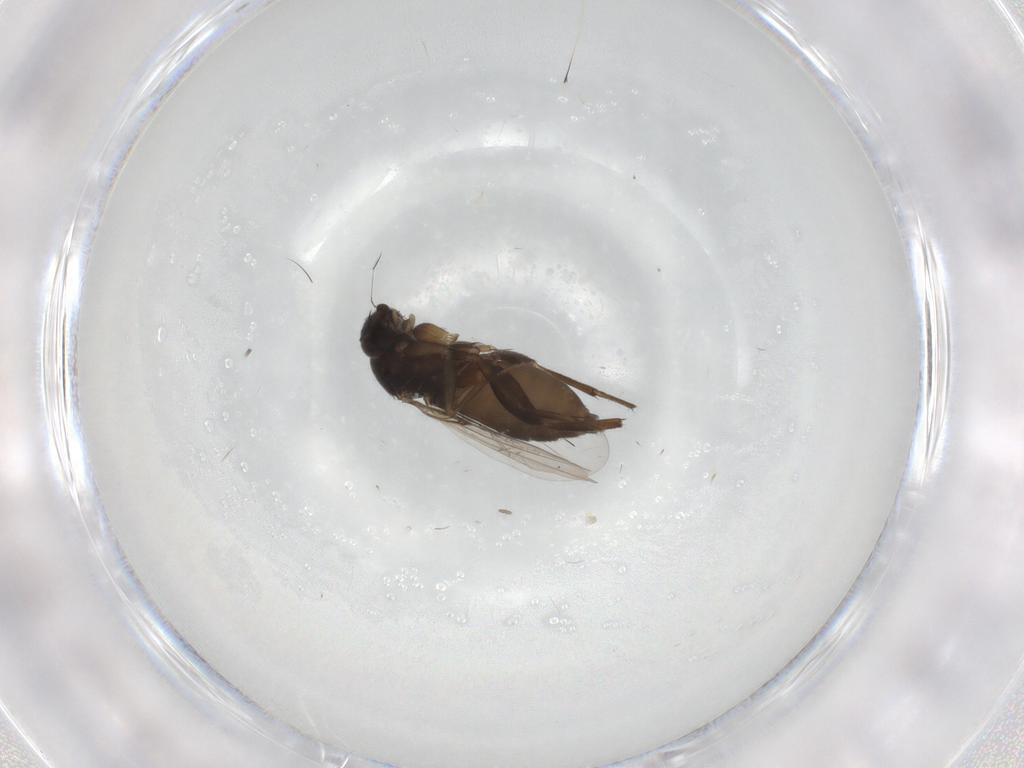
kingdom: Animalia
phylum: Arthropoda
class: Insecta
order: Diptera
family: Phoridae
